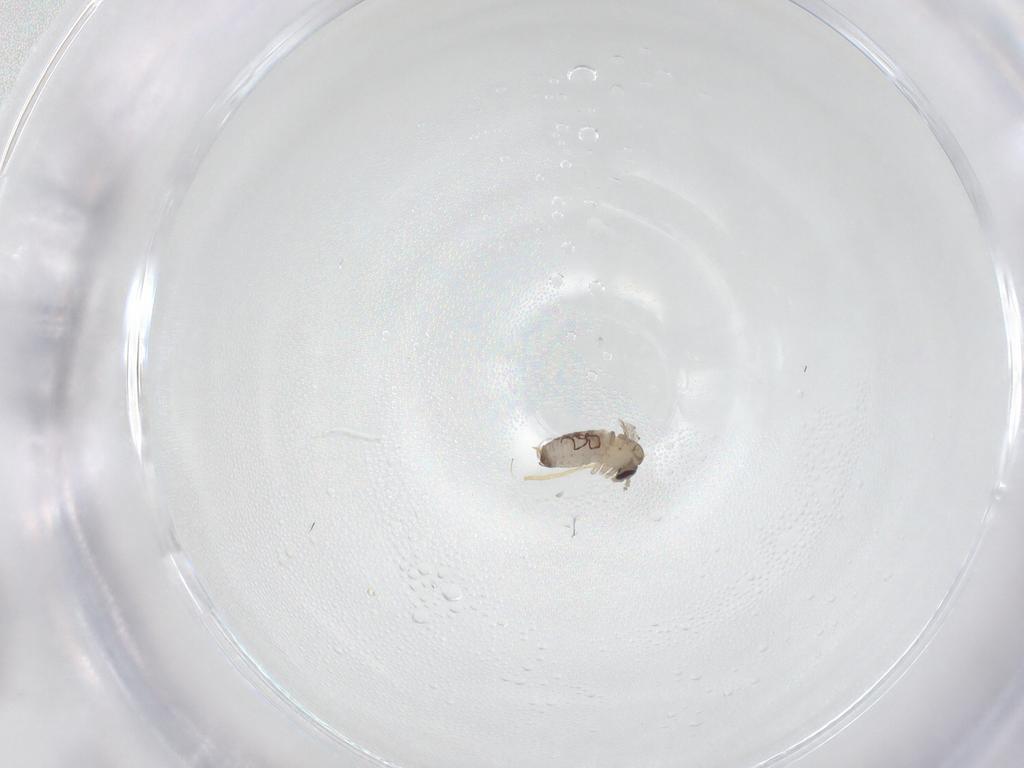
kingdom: Animalia
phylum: Arthropoda
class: Insecta
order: Diptera
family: Psychodidae
